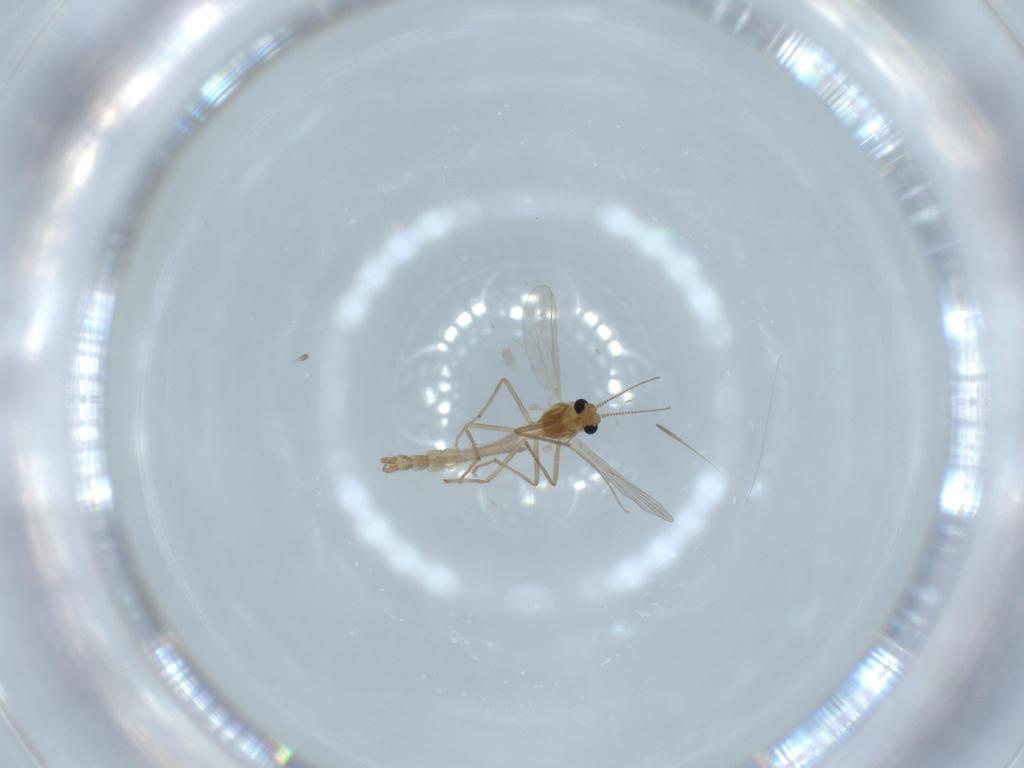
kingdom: Animalia
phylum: Arthropoda
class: Insecta
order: Diptera
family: Chironomidae
